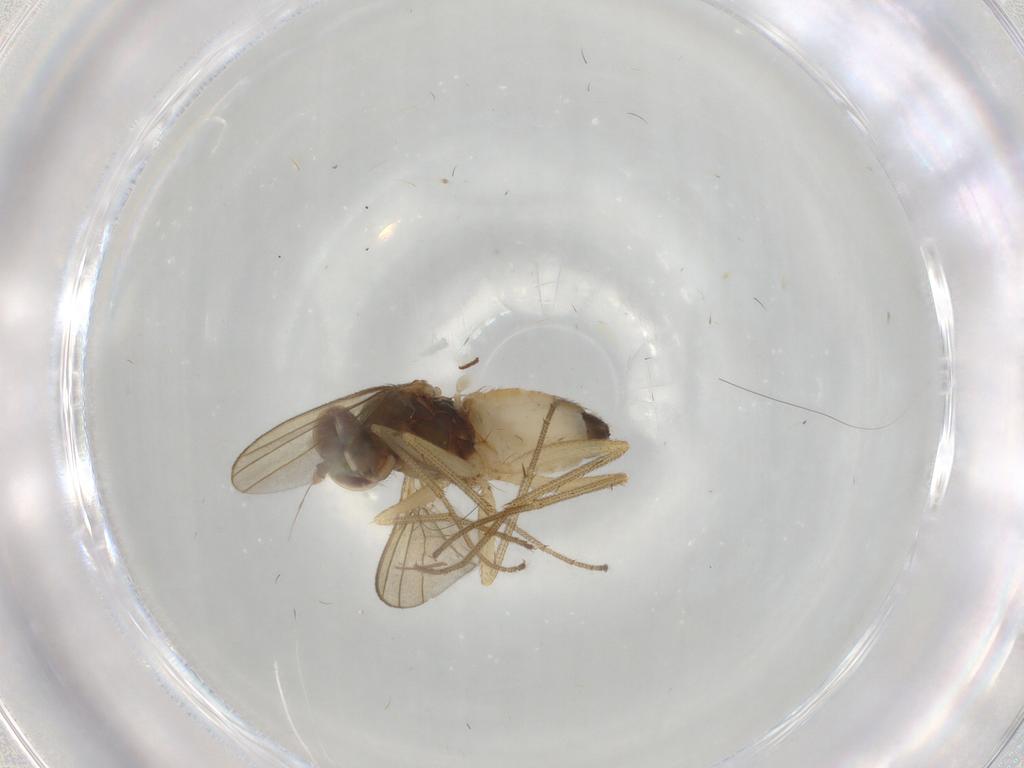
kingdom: Animalia
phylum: Arthropoda
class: Insecta
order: Diptera
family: Dolichopodidae
